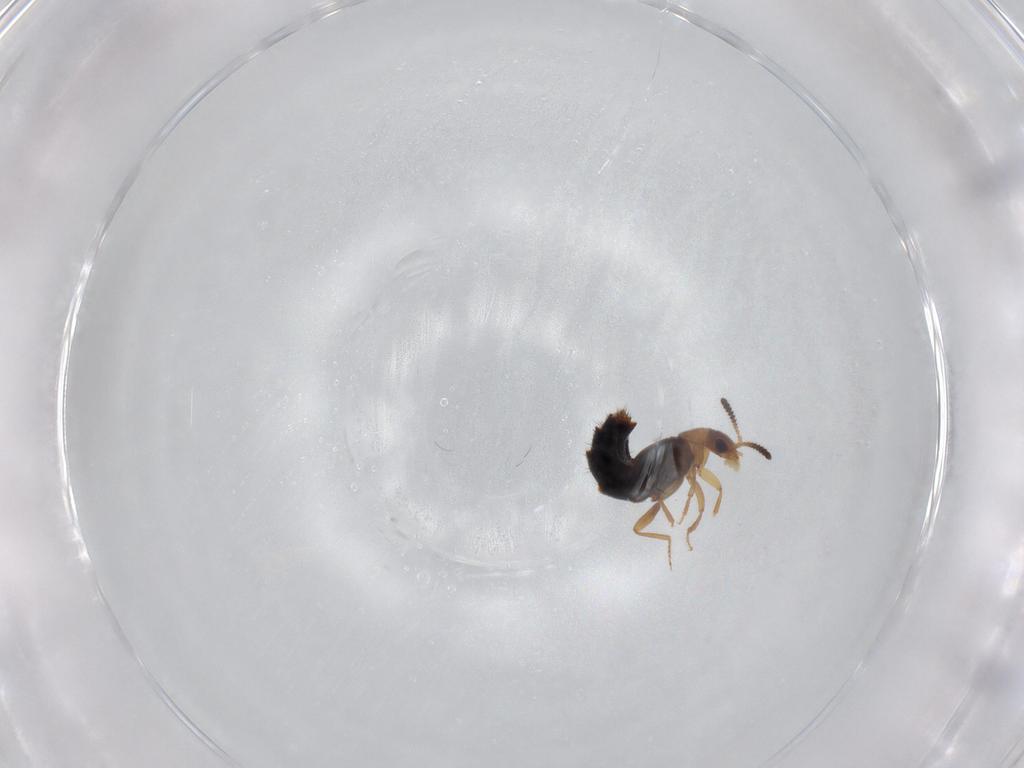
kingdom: Animalia
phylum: Arthropoda
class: Insecta
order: Coleoptera
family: Staphylinidae
